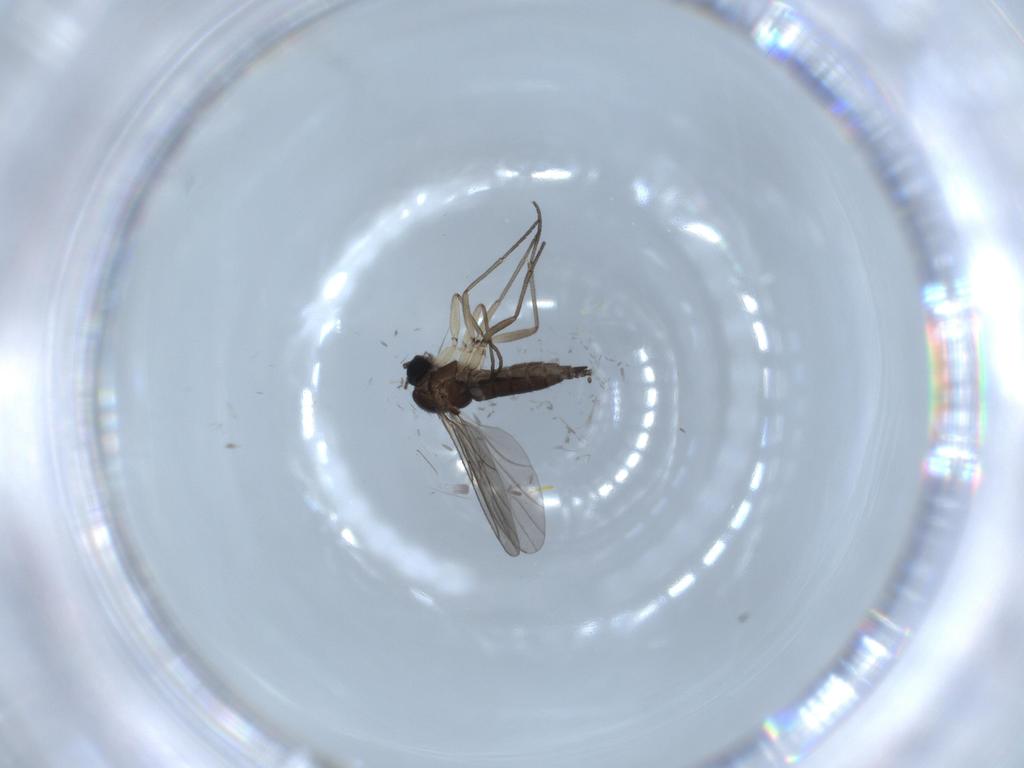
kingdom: Animalia
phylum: Arthropoda
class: Insecta
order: Diptera
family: Sciaridae
